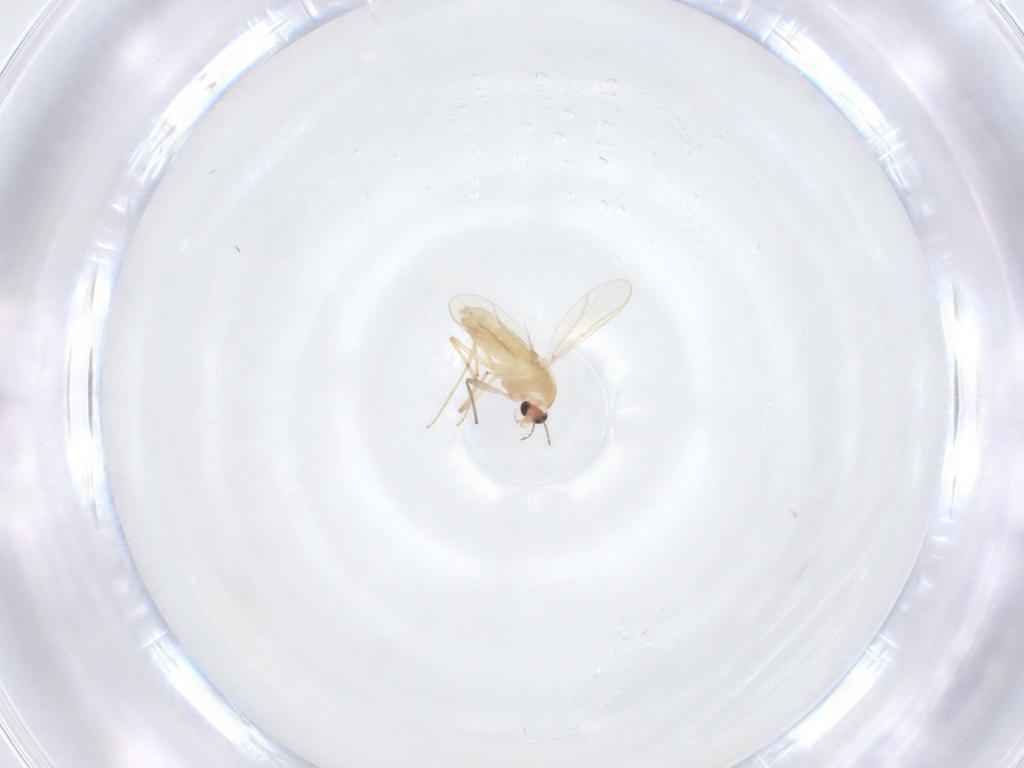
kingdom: Animalia
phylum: Arthropoda
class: Insecta
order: Diptera
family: Chironomidae
